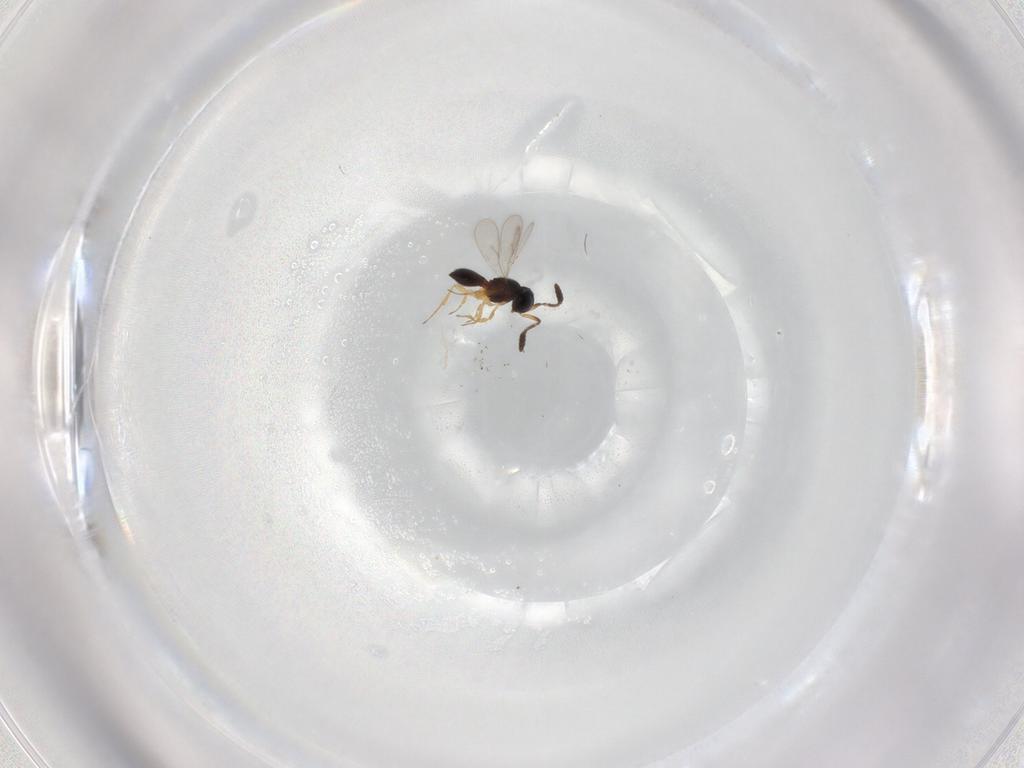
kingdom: Animalia
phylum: Arthropoda
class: Insecta
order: Hymenoptera
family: Scelionidae
